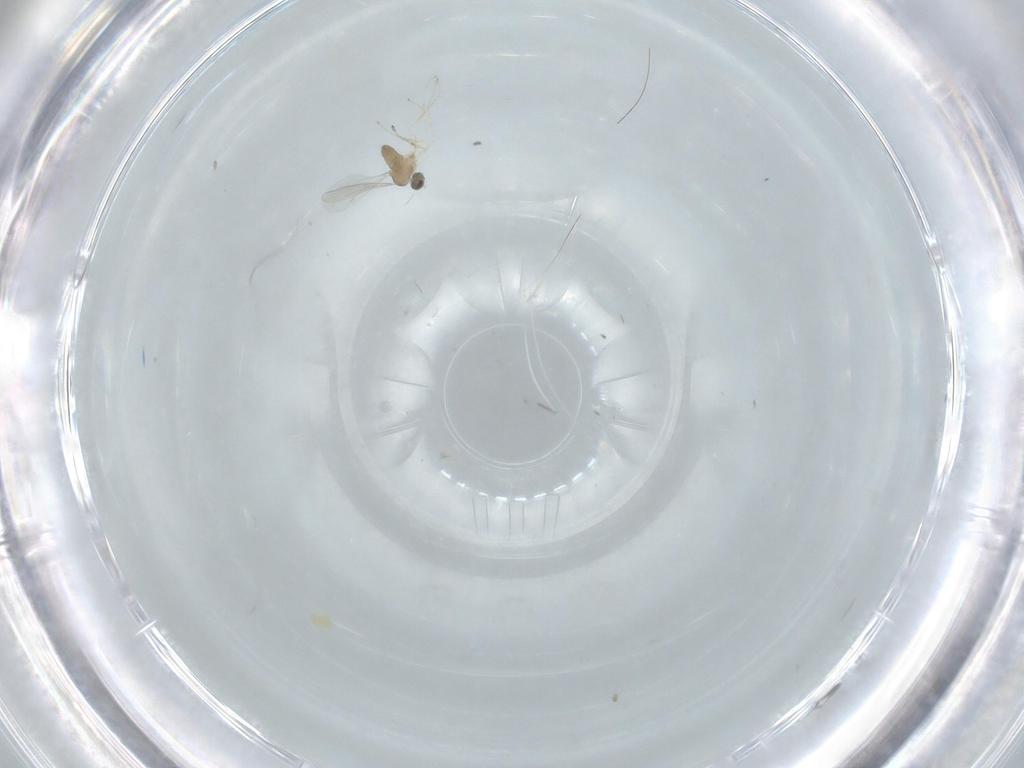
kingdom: Animalia
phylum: Arthropoda
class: Insecta
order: Diptera
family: Cecidomyiidae
